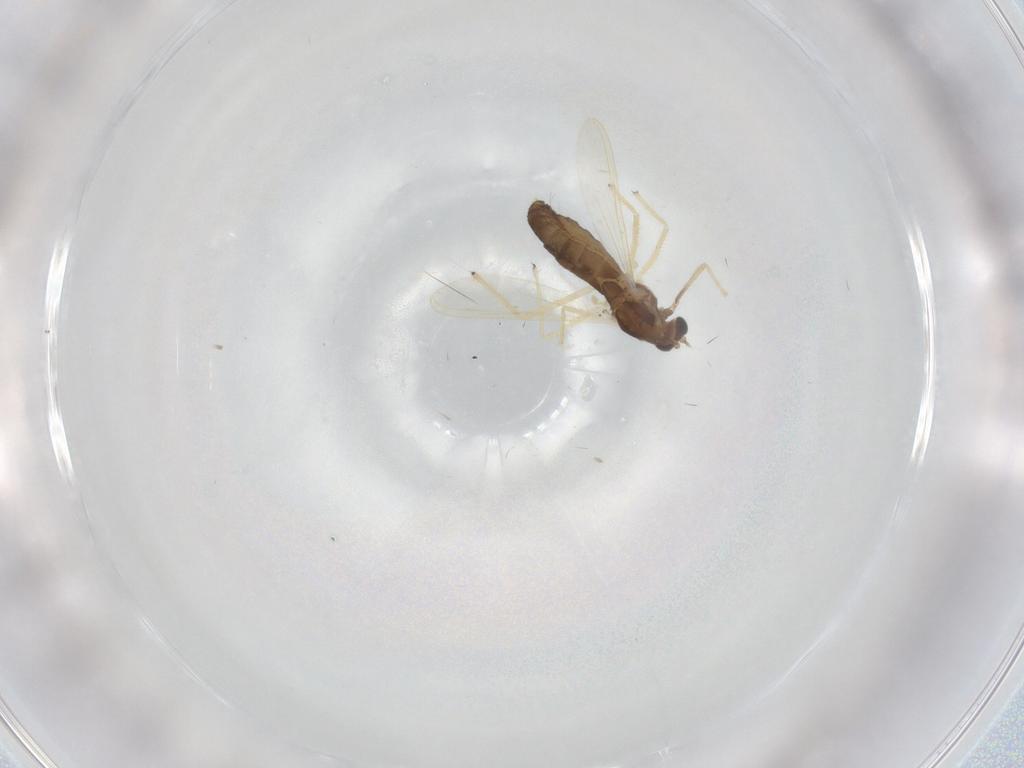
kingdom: Animalia
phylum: Arthropoda
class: Insecta
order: Diptera
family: Chironomidae
